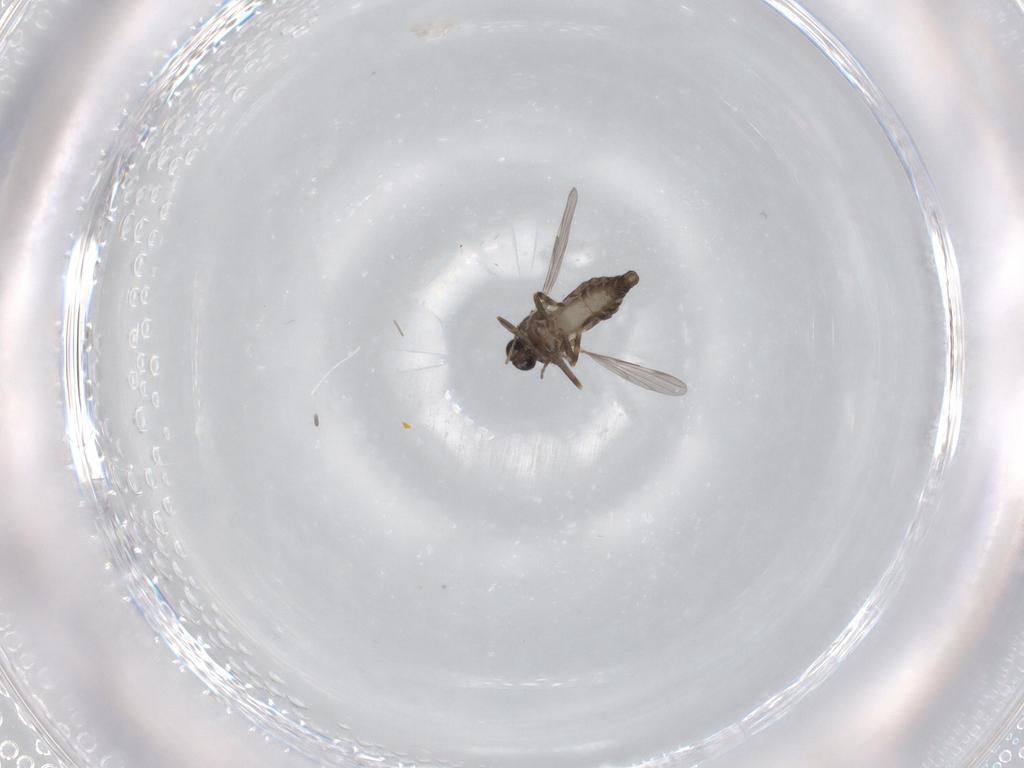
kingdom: Animalia
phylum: Arthropoda
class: Insecta
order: Diptera
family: Ceratopogonidae
